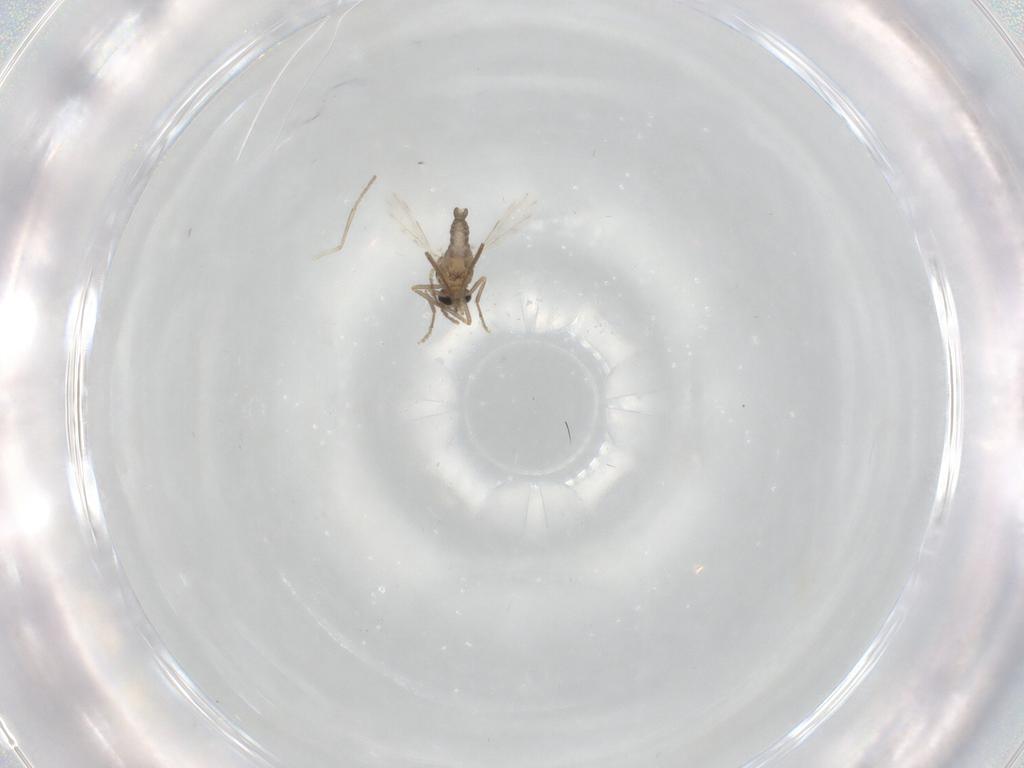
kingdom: Animalia
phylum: Arthropoda
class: Insecta
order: Diptera
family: Ceratopogonidae
